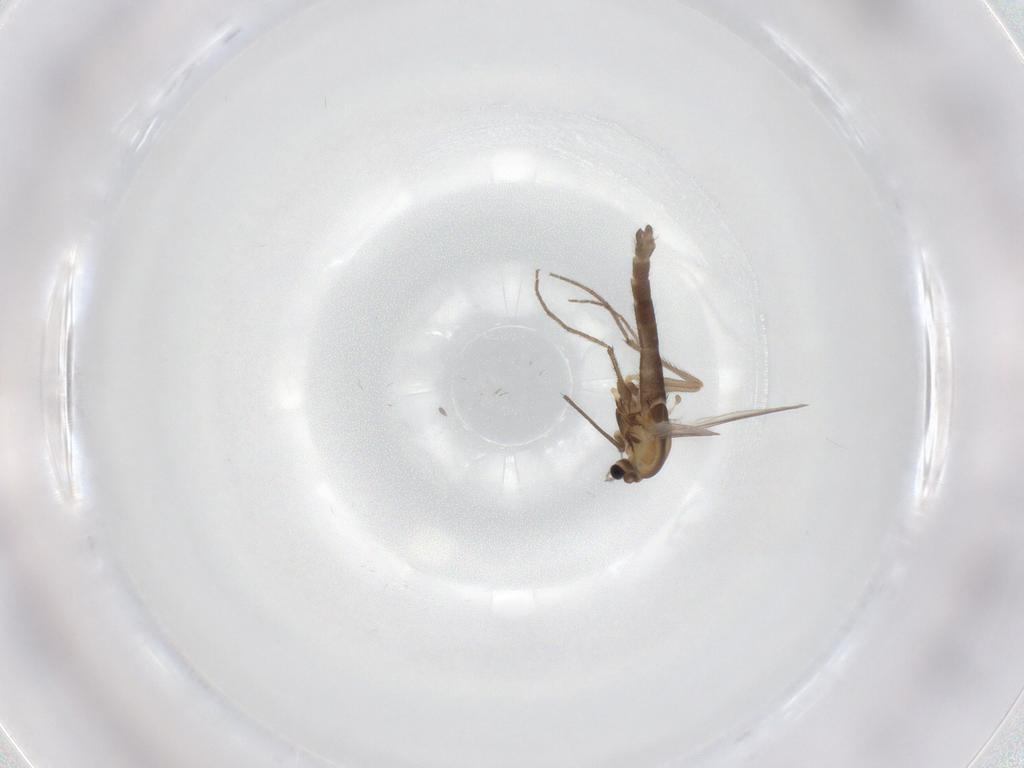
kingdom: Animalia
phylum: Arthropoda
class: Insecta
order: Diptera
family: Chironomidae
